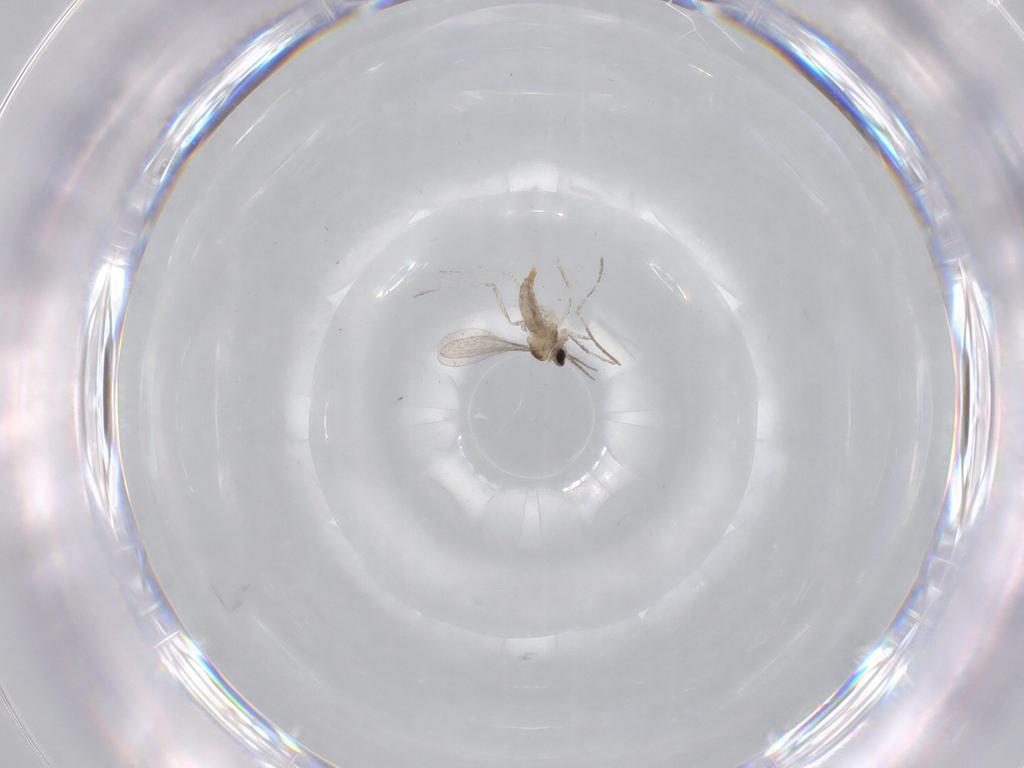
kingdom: Animalia
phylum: Arthropoda
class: Insecta
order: Diptera
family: Chironomidae
